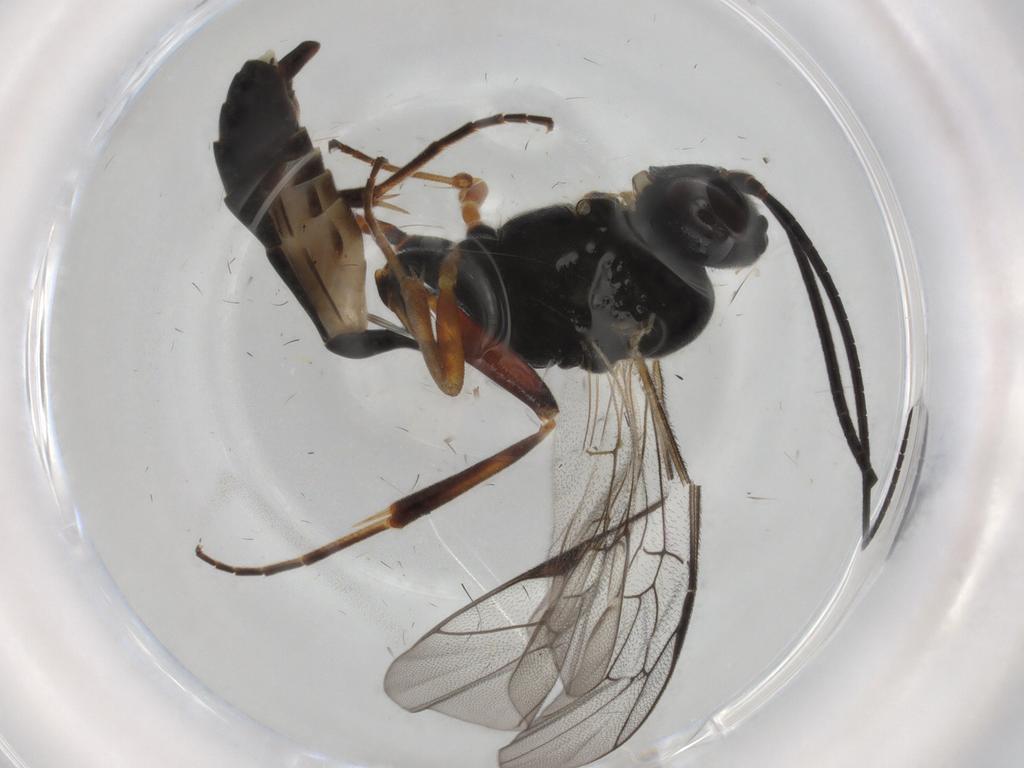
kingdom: Animalia
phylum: Arthropoda
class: Insecta
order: Hymenoptera
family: Ichneumonidae
